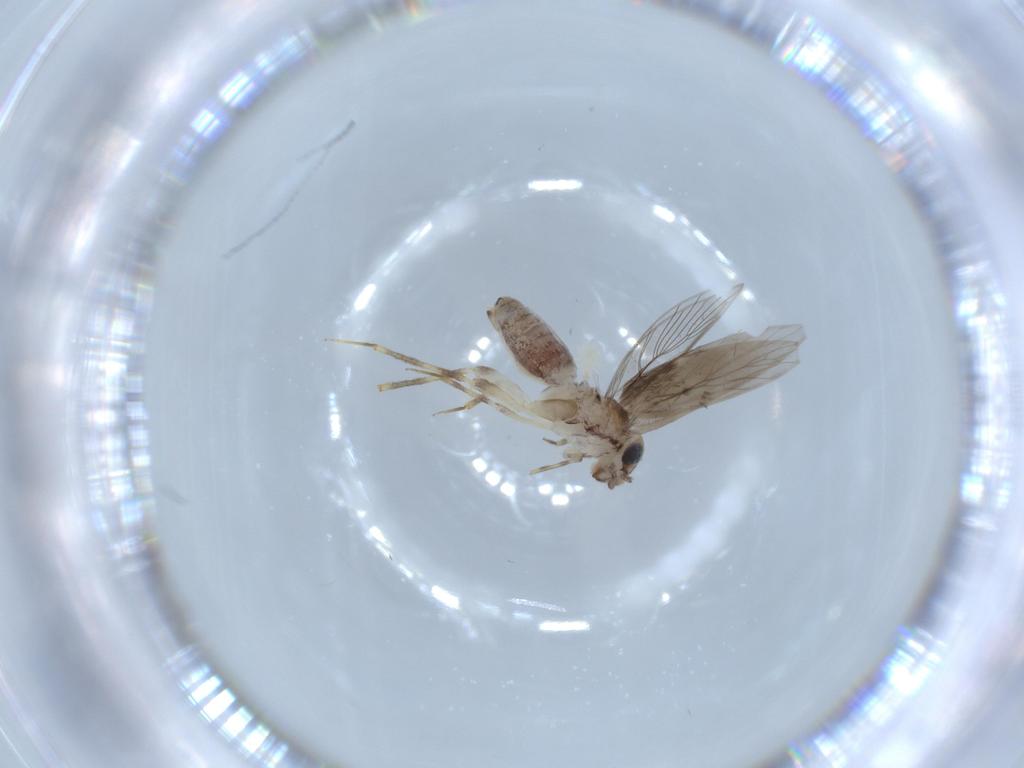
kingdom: Animalia
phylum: Arthropoda
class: Insecta
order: Psocodea
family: Lepidopsocidae
